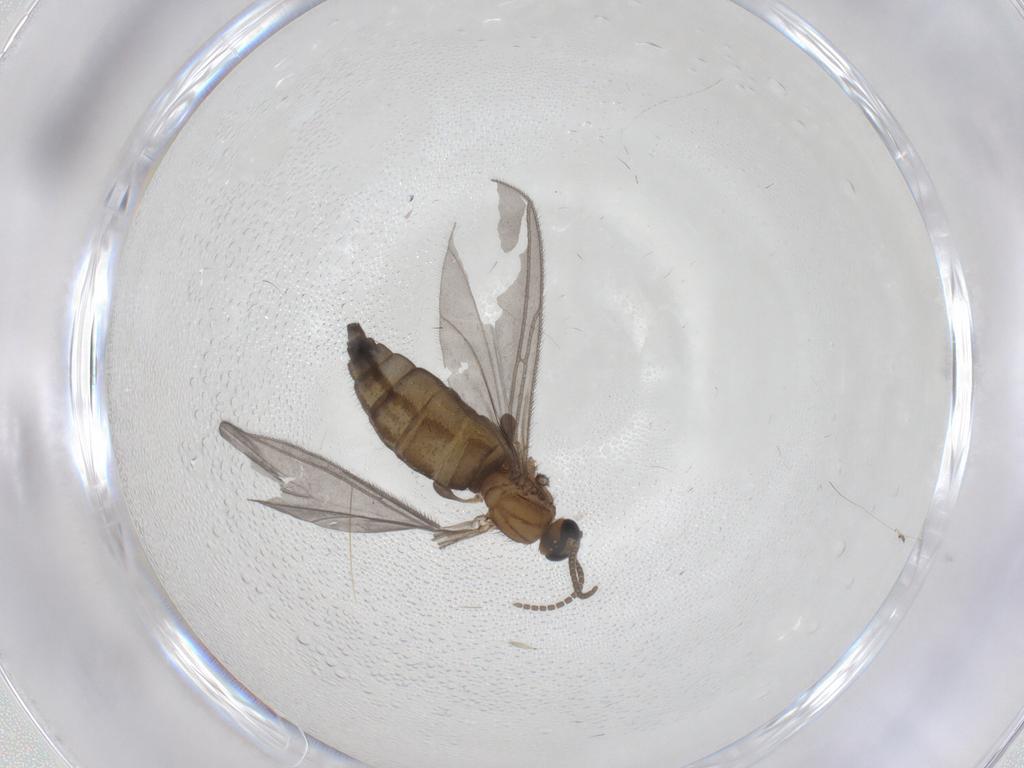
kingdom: Animalia
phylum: Arthropoda
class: Insecta
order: Diptera
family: Sciaridae
